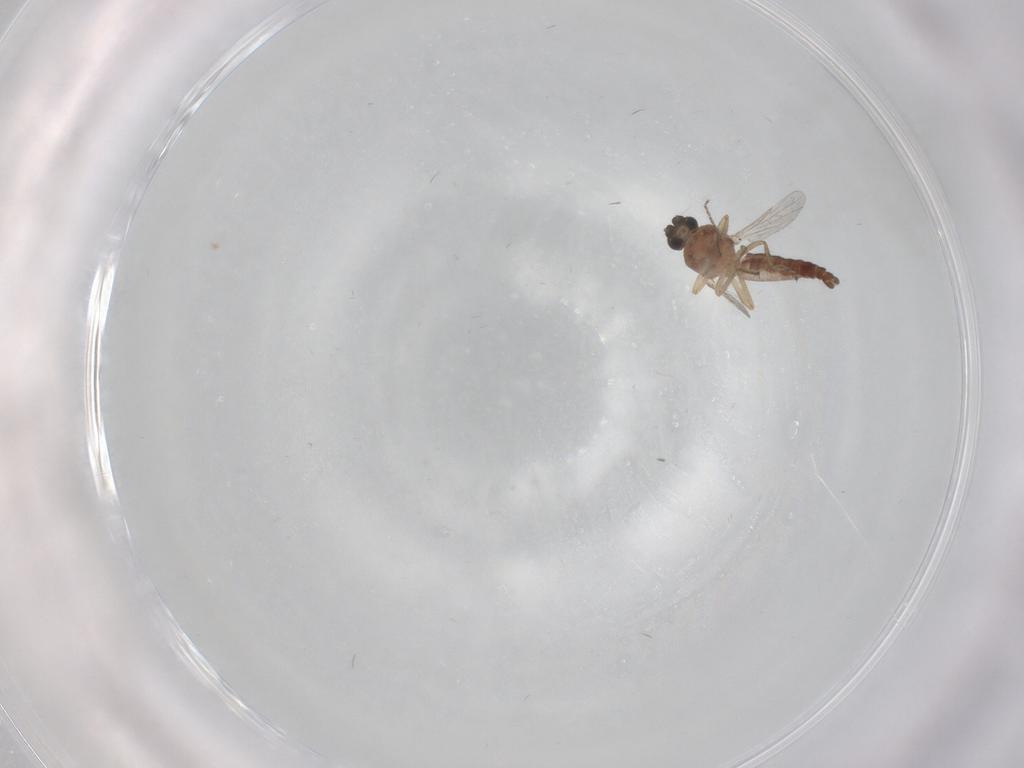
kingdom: Animalia
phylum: Arthropoda
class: Insecta
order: Diptera
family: Ceratopogonidae
